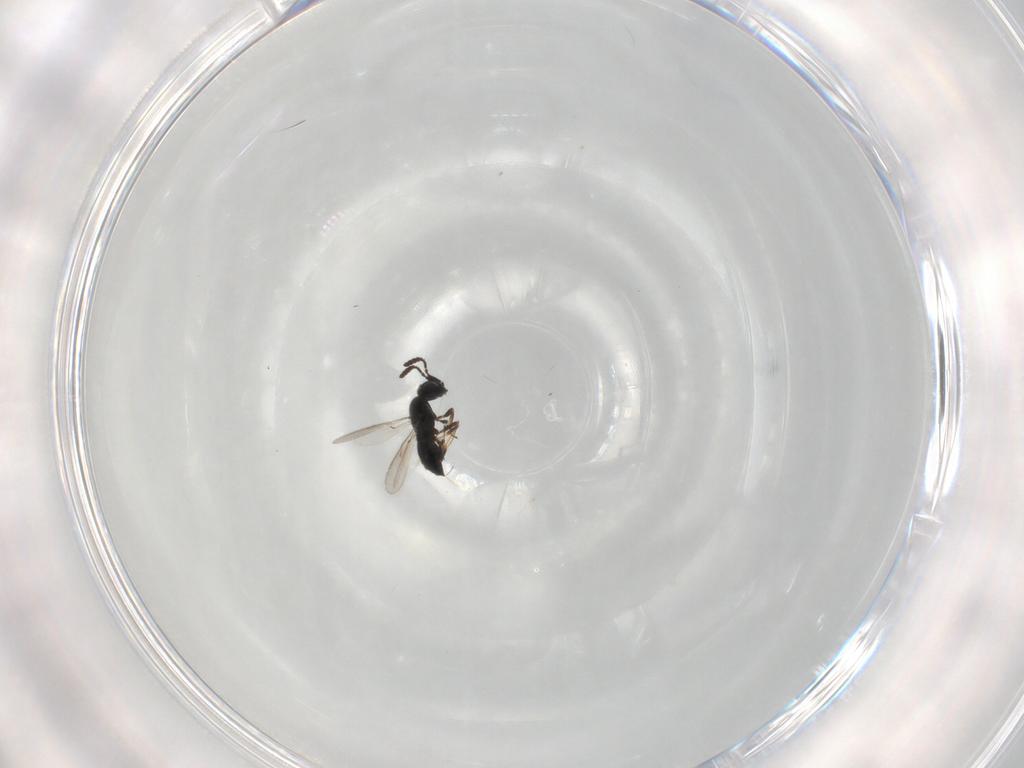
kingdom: Animalia
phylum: Arthropoda
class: Insecta
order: Hymenoptera
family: Scelionidae
